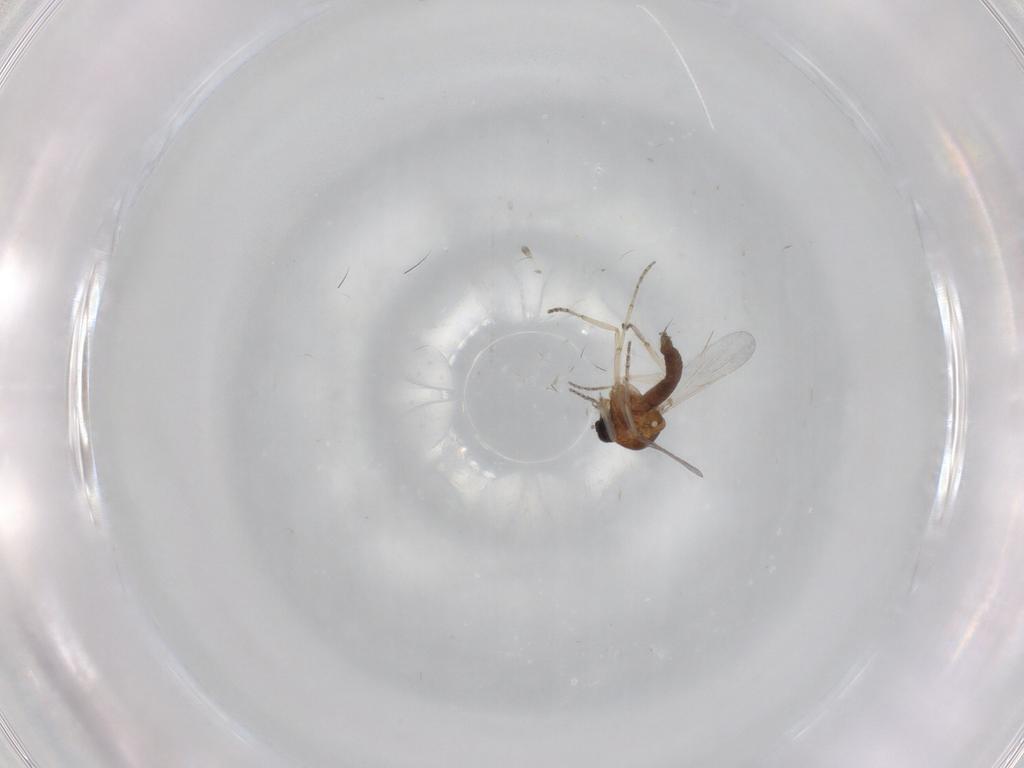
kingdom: Animalia
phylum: Arthropoda
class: Insecta
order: Diptera
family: Ceratopogonidae
